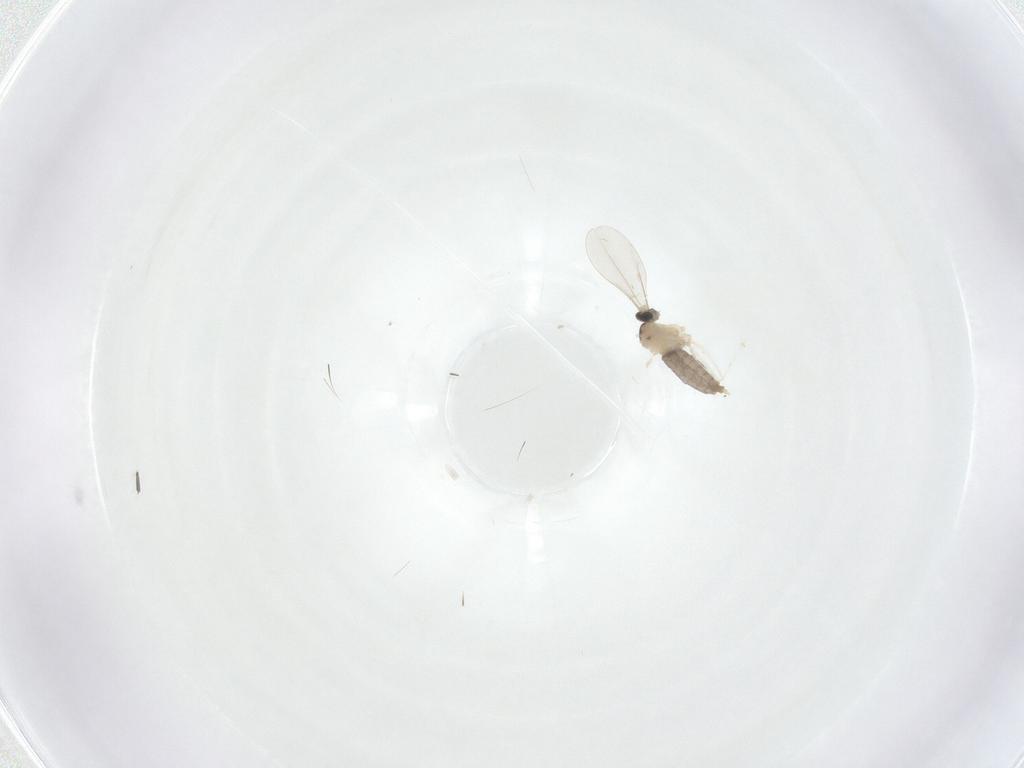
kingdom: Animalia
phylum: Arthropoda
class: Insecta
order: Diptera
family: Chironomidae
